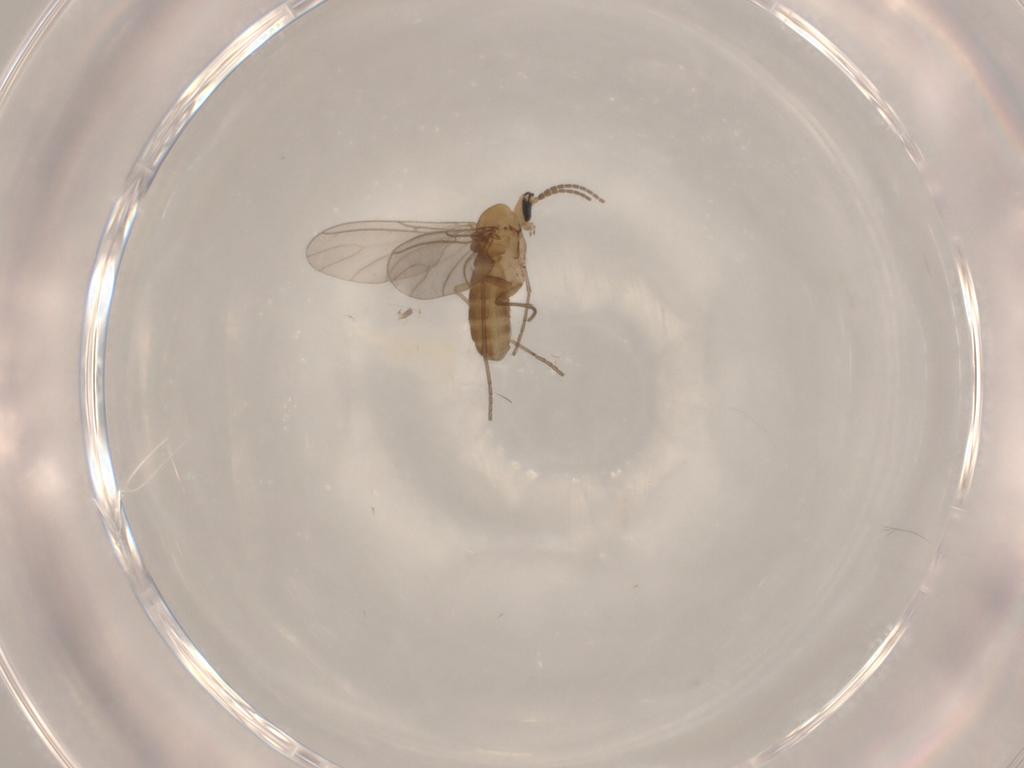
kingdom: Animalia
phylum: Arthropoda
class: Insecta
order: Diptera
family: Sciaridae
